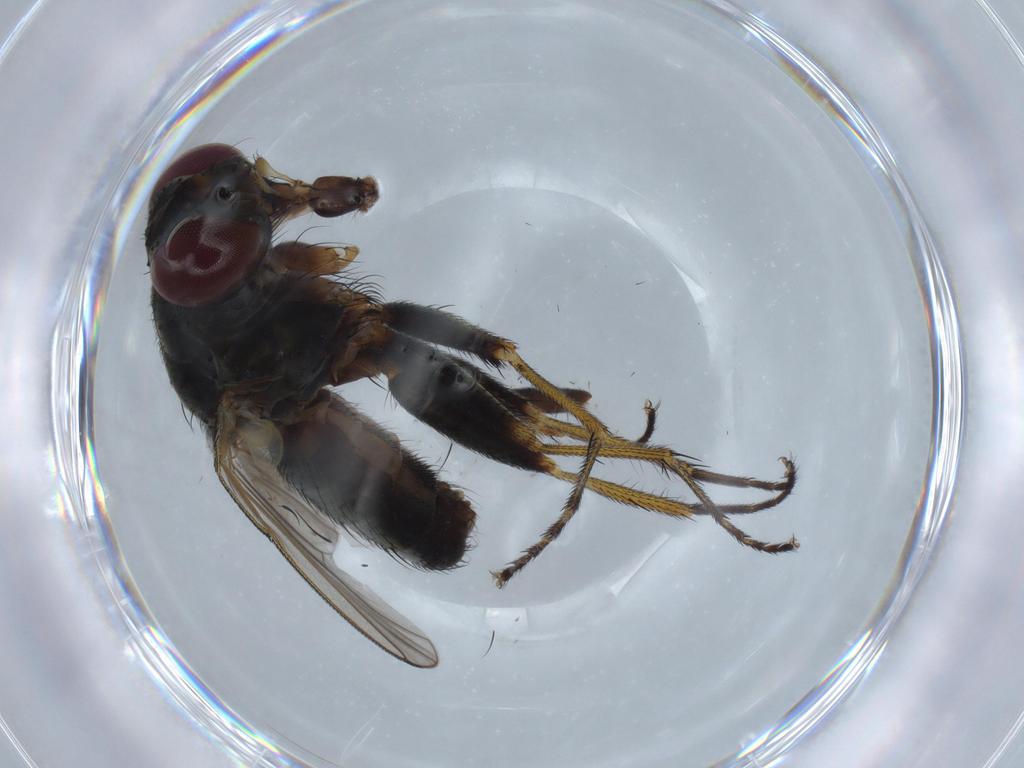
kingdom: Animalia
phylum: Arthropoda
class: Insecta
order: Diptera
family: Muscidae
